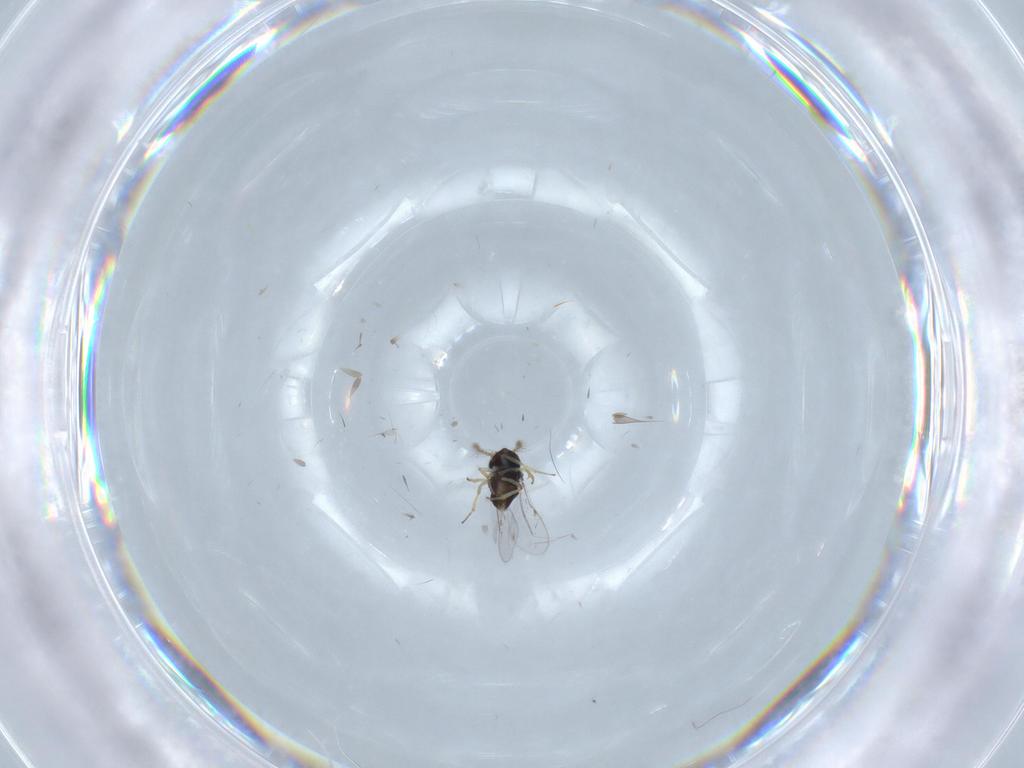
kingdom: Animalia
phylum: Arthropoda
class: Insecta
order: Hymenoptera
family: Encyrtidae
